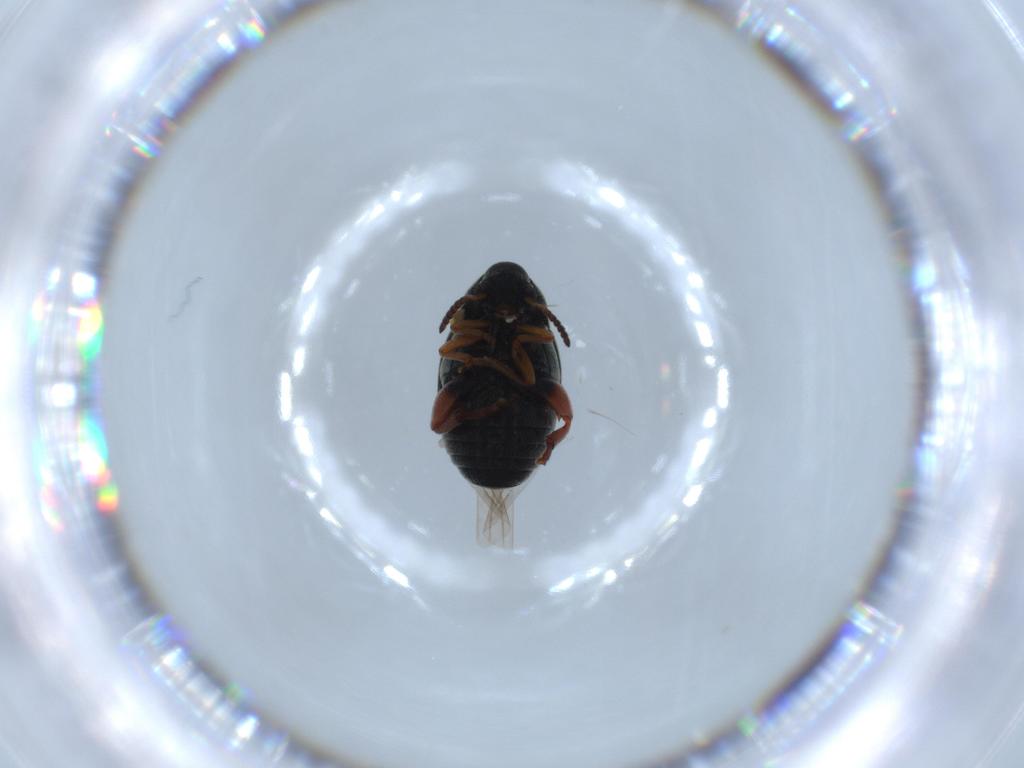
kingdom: Animalia
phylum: Arthropoda
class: Insecta
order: Coleoptera
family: Chrysomelidae
